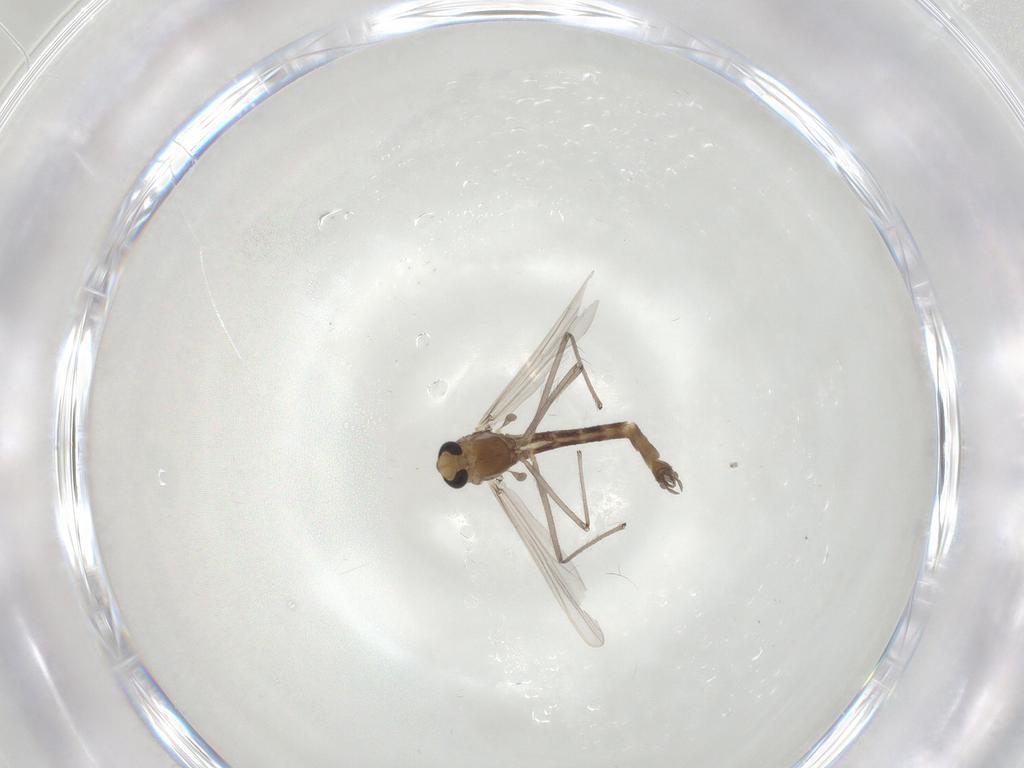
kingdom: Animalia
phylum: Arthropoda
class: Insecta
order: Diptera
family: Chironomidae
